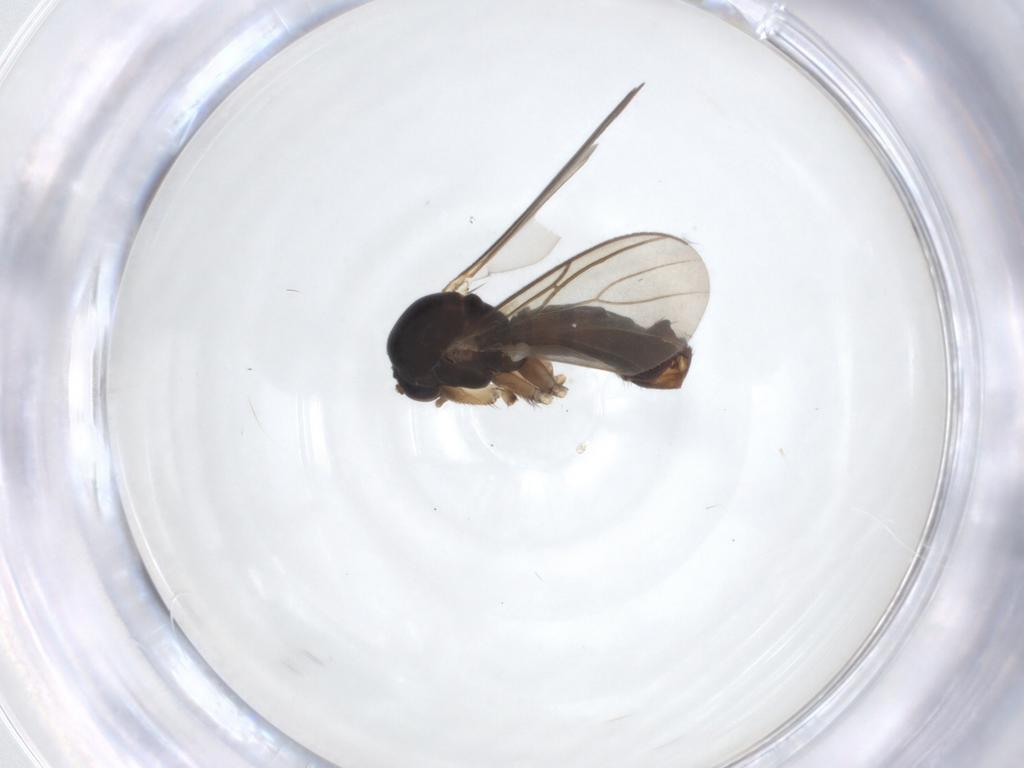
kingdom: Animalia
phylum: Arthropoda
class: Insecta
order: Diptera
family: Mycetophilidae
